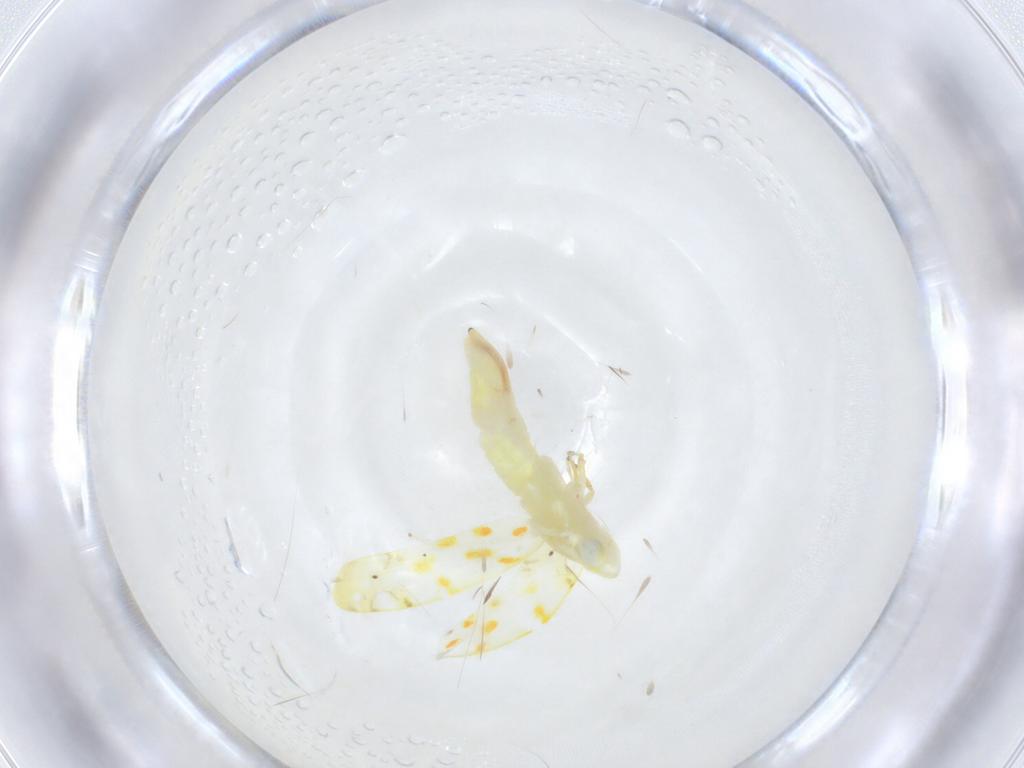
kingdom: Animalia
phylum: Arthropoda
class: Insecta
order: Hemiptera
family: Cicadellidae
